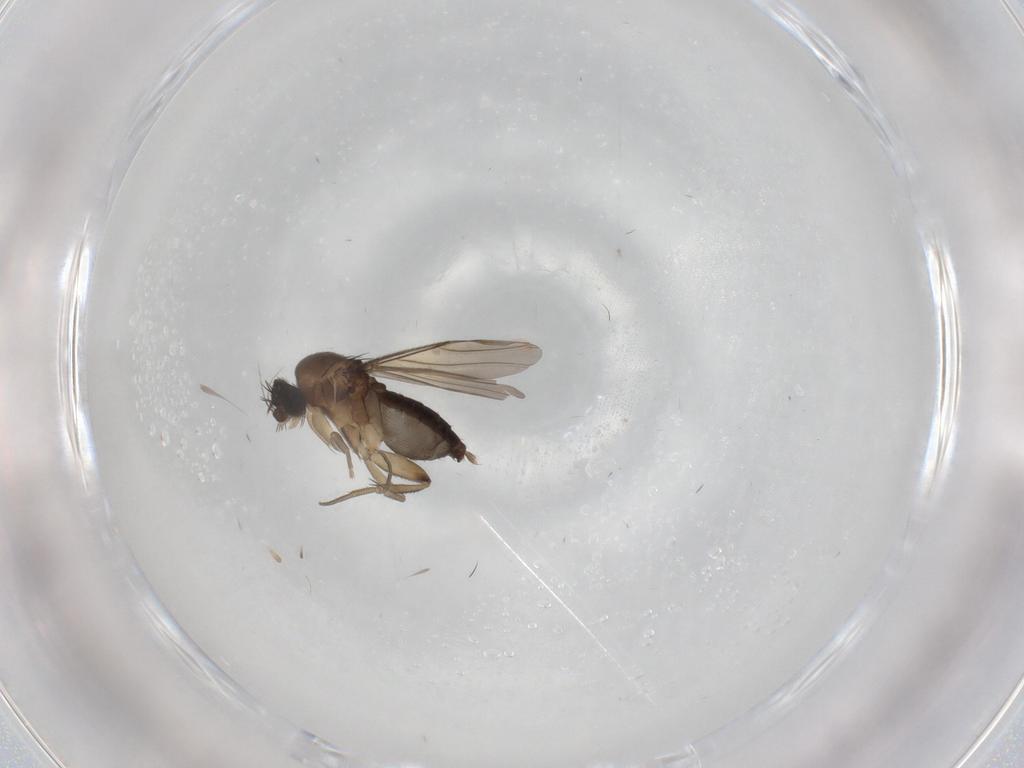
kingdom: Animalia
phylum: Arthropoda
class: Insecta
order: Diptera
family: Phoridae
